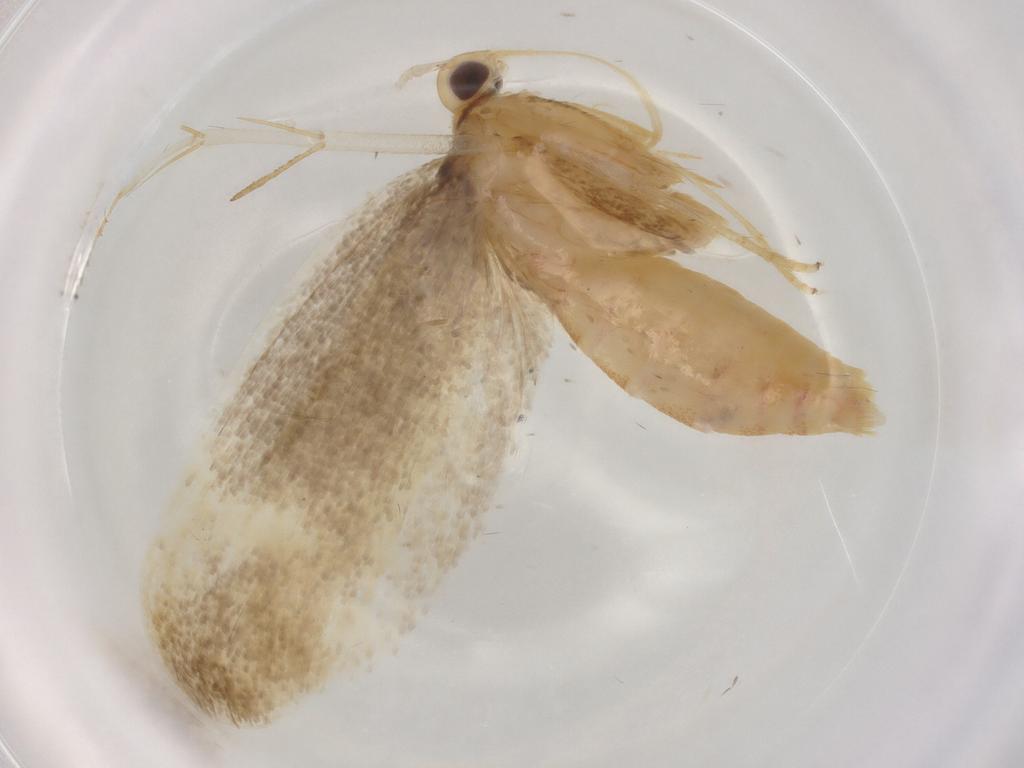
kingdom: Animalia
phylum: Arthropoda
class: Insecta
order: Lepidoptera
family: Lecithoceridae
